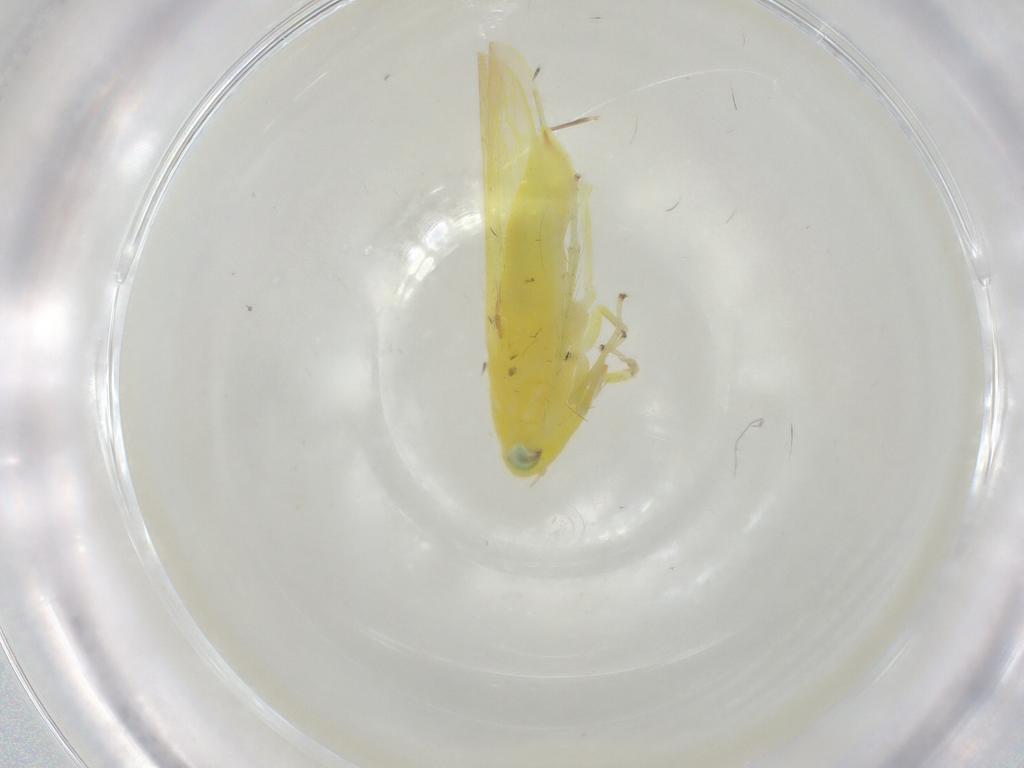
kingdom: Animalia
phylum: Arthropoda
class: Insecta
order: Hemiptera
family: Cicadellidae
